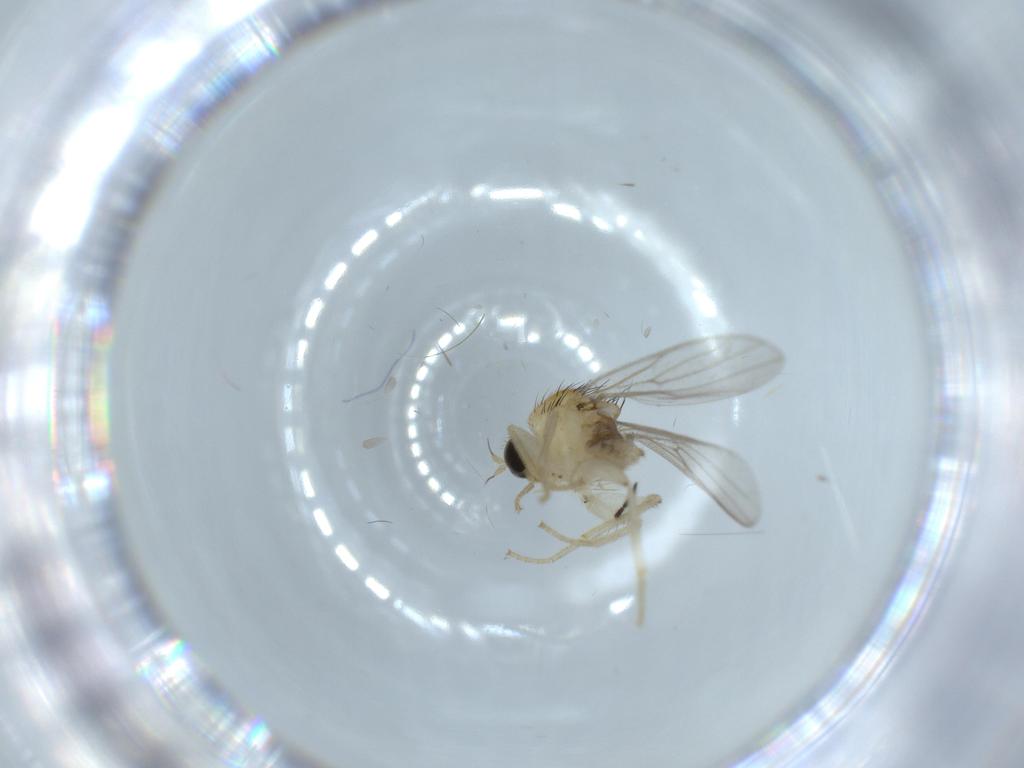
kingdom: Animalia
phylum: Arthropoda
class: Insecta
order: Diptera
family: Hybotidae
